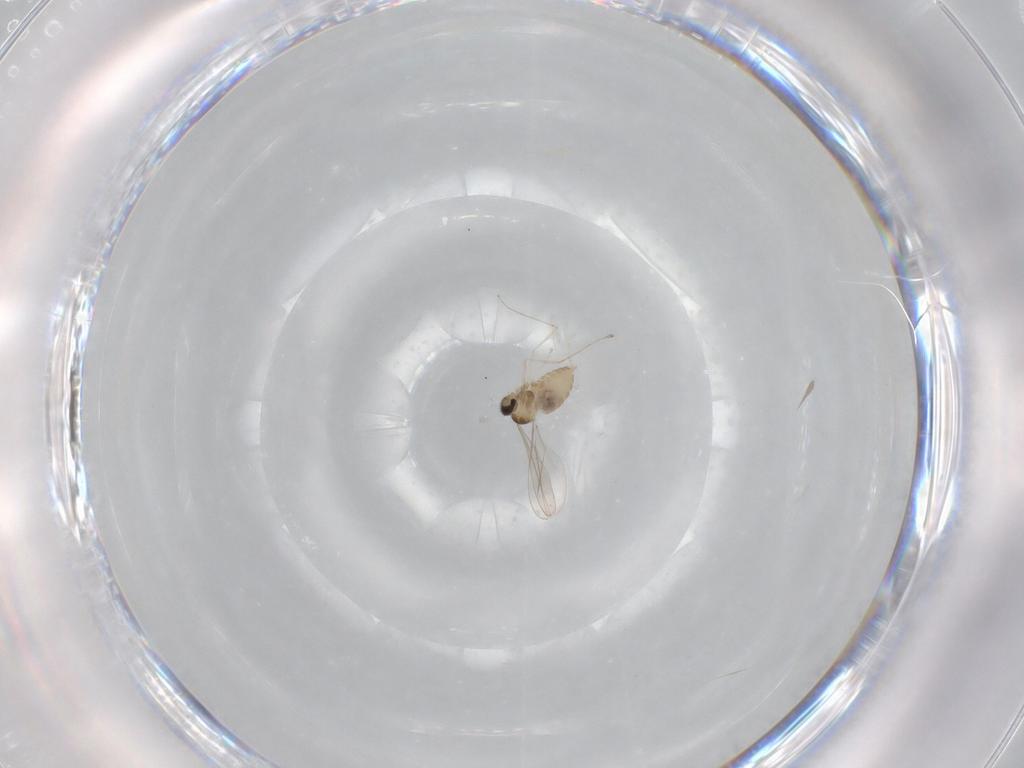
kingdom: Animalia
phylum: Arthropoda
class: Insecta
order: Diptera
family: Cecidomyiidae
